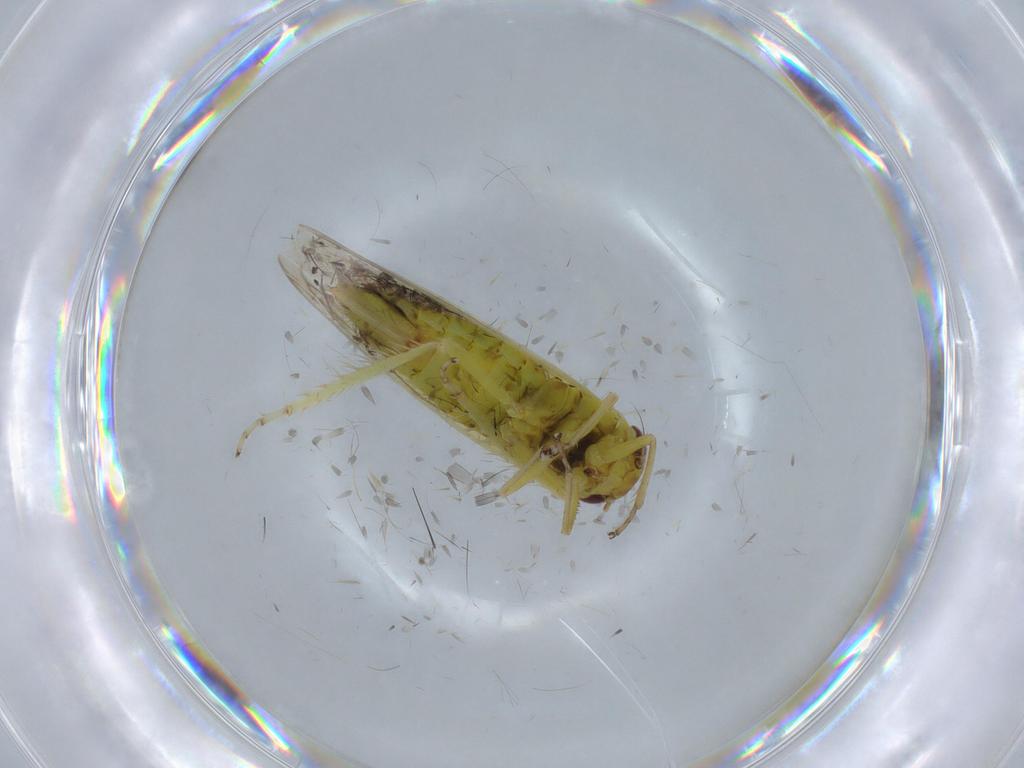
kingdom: Animalia
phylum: Arthropoda
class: Insecta
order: Hemiptera
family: Cicadellidae
